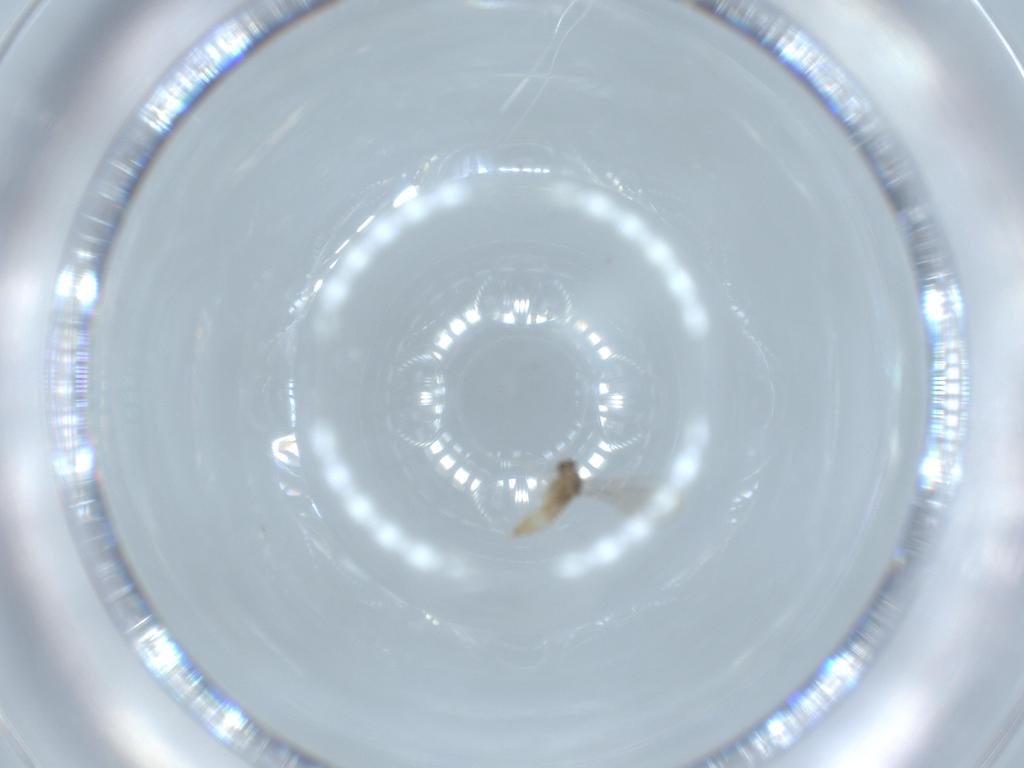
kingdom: Animalia
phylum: Arthropoda
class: Insecta
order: Diptera
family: Cecidomyiidae
